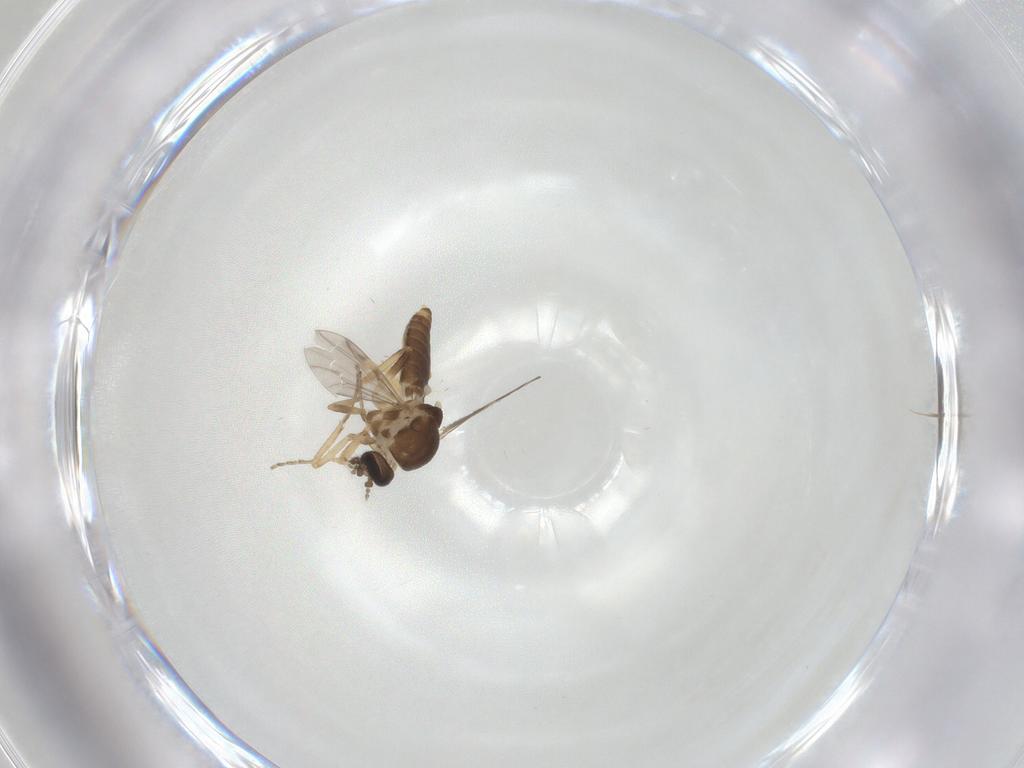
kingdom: Animalia
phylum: Arthropoda
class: Insecta
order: Diptera
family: Ceratopogonidae
